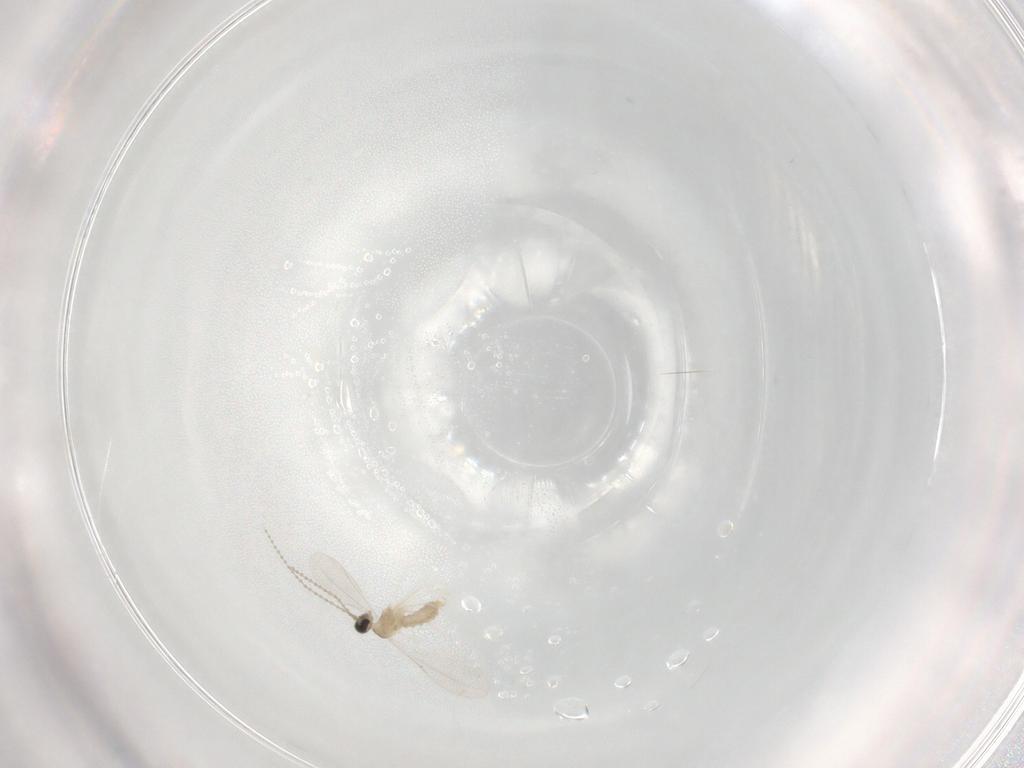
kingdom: Animalia
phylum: Arthropoda
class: Insecta
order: Diptera
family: Cecidomyiidae
